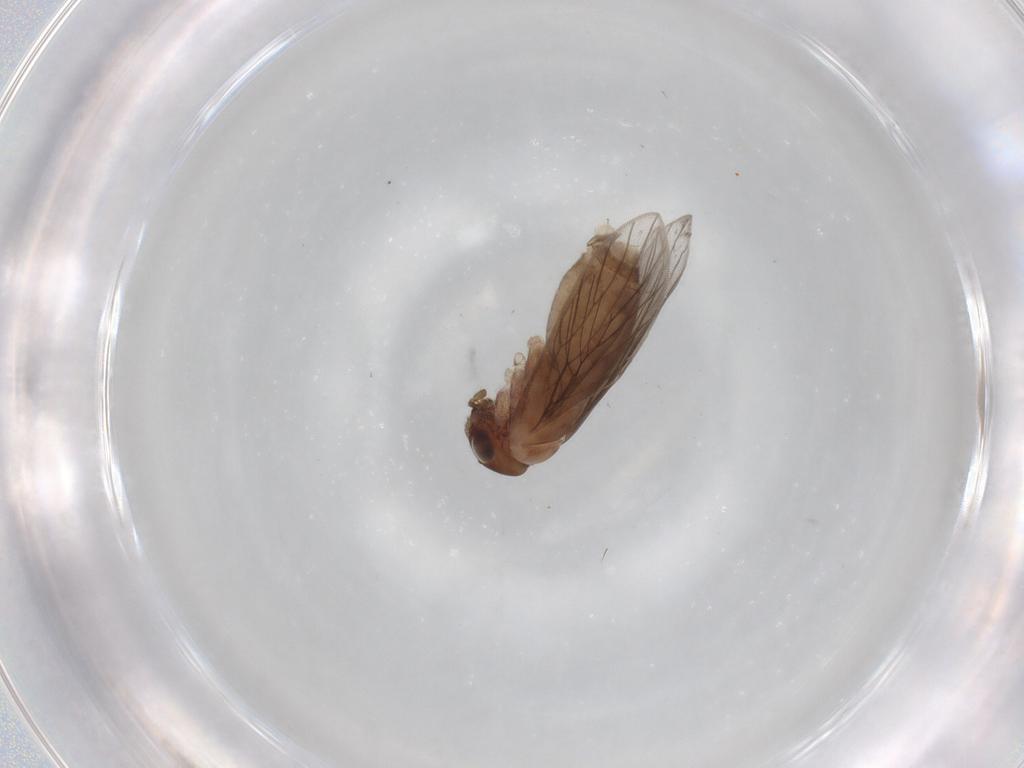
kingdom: Animalia
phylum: Arthropoda
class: Insecta
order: Psocodea
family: Lepidopsocidae
